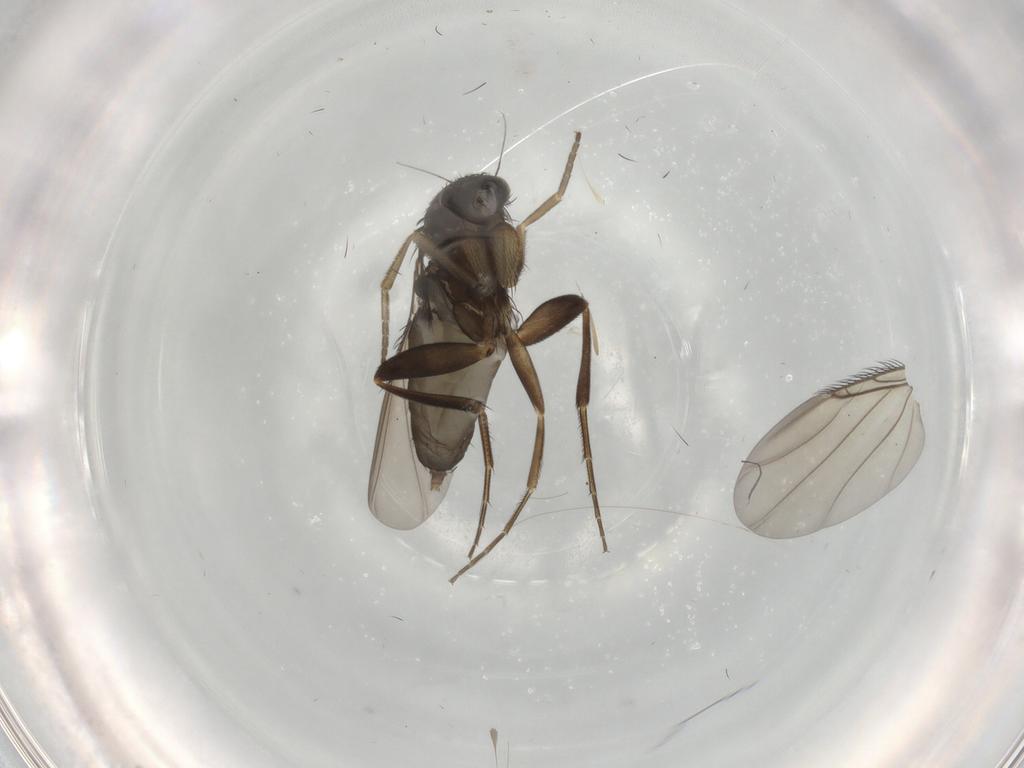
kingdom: Animalia
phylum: Arthropoda
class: Insecta
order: Diptera
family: Phoridae
